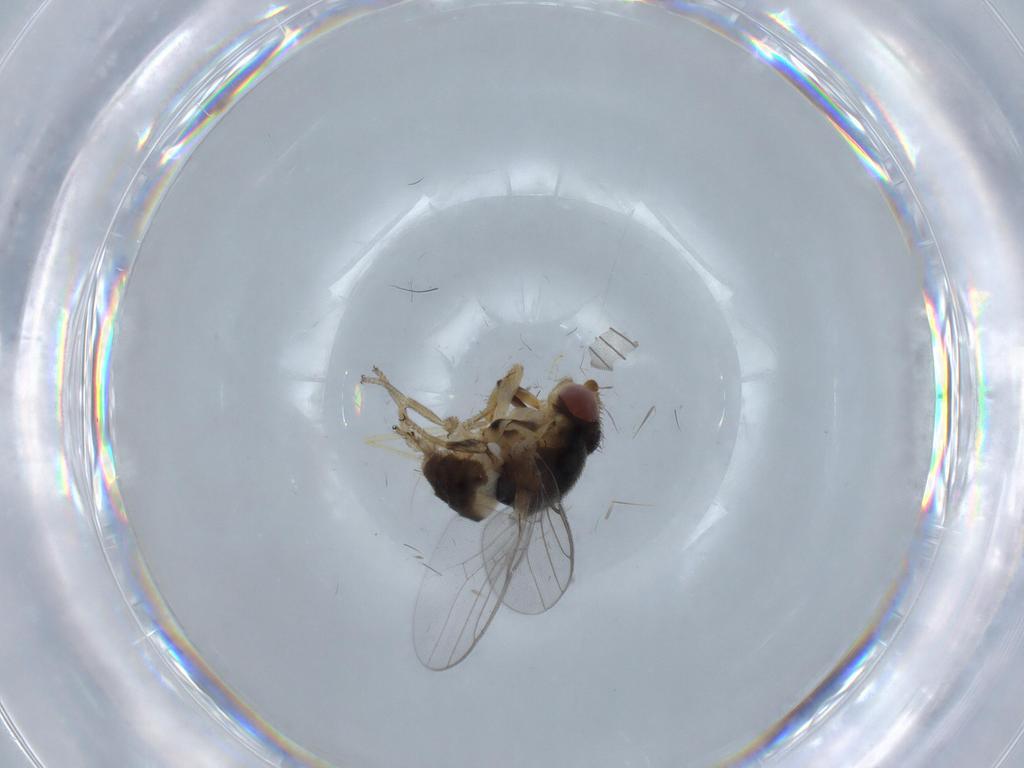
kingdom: Animalia
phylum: Arthropoda
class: Insecta
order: Diptera
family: Chloropidae
